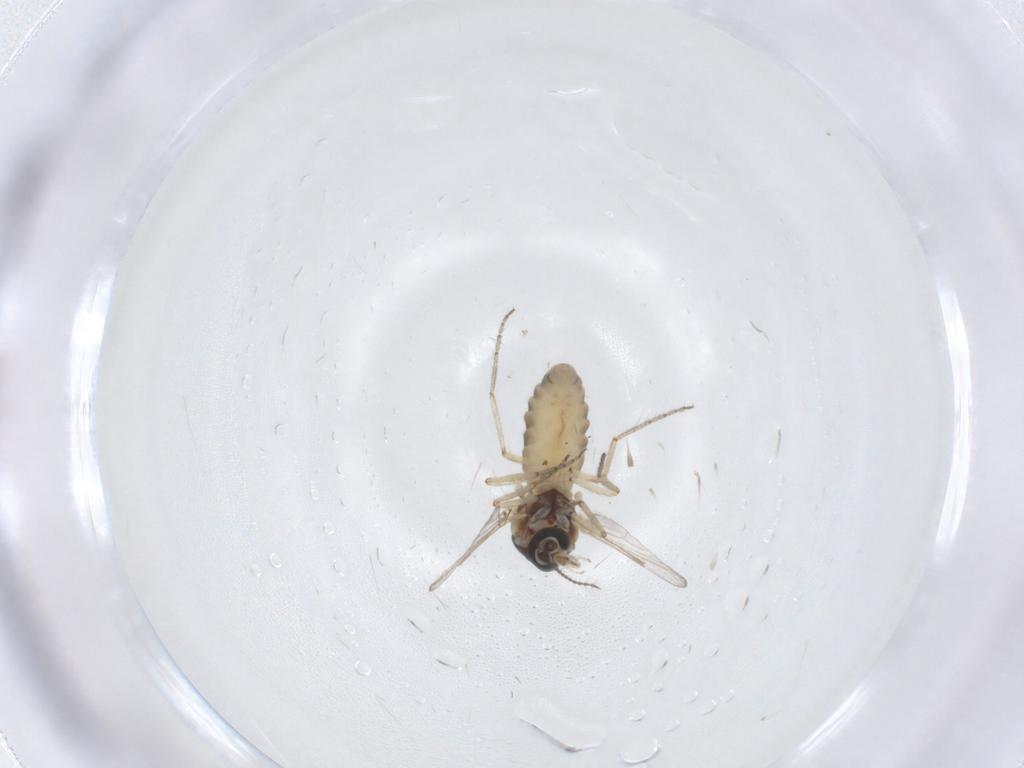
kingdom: Animalia
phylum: Arthropoda
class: Insecta
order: Diptera
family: Ceratopogonidae
